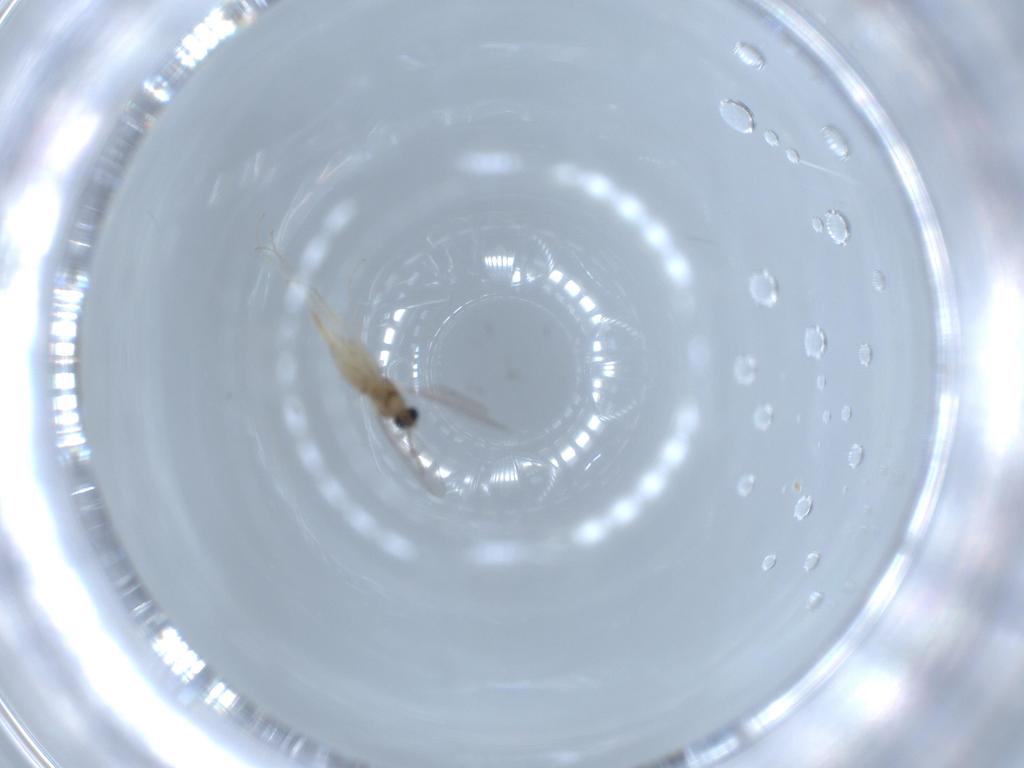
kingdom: Animalia
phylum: Arthropoda
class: Insecta
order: Diptera
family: Cecidomyiidae
